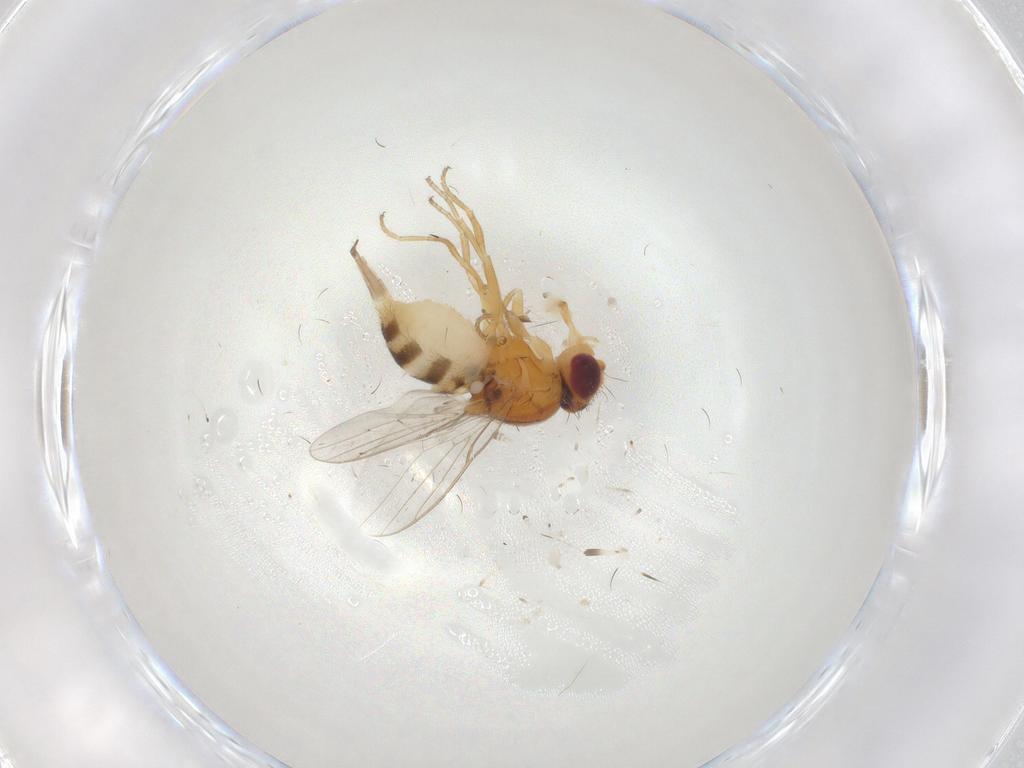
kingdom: Animalia
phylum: Arthropoda
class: Insecta
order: Diptera
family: Chloropidae
